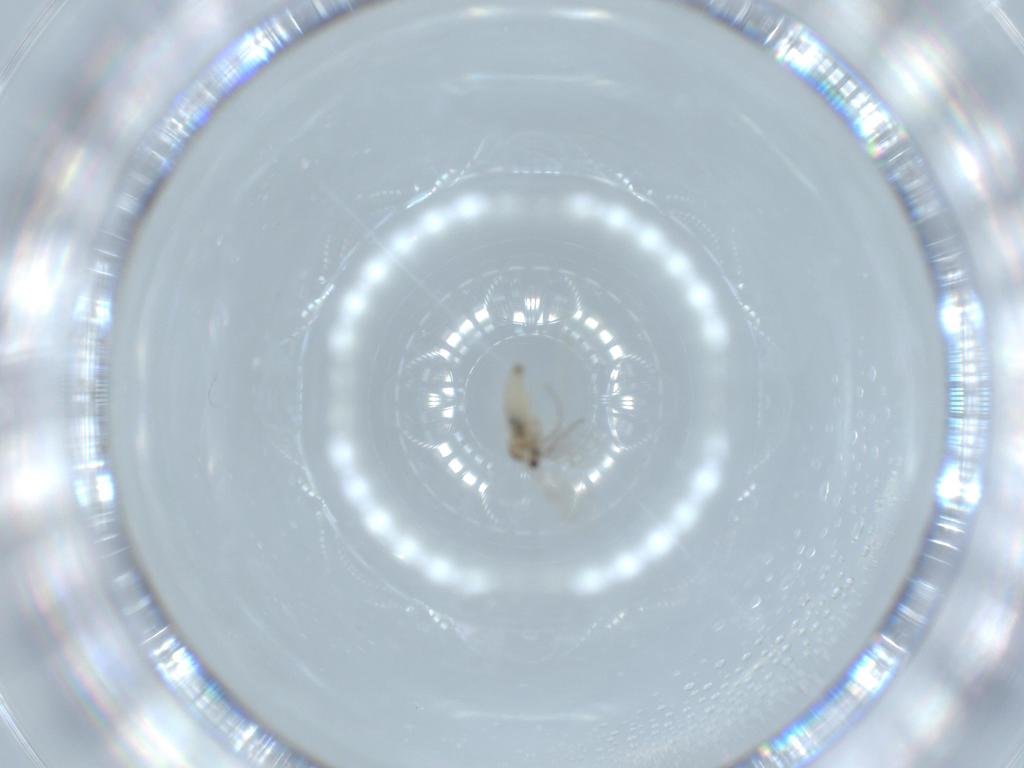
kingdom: Animalia
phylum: Arthropoda
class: Insecta
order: Diptera
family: Cecidomyiidae
